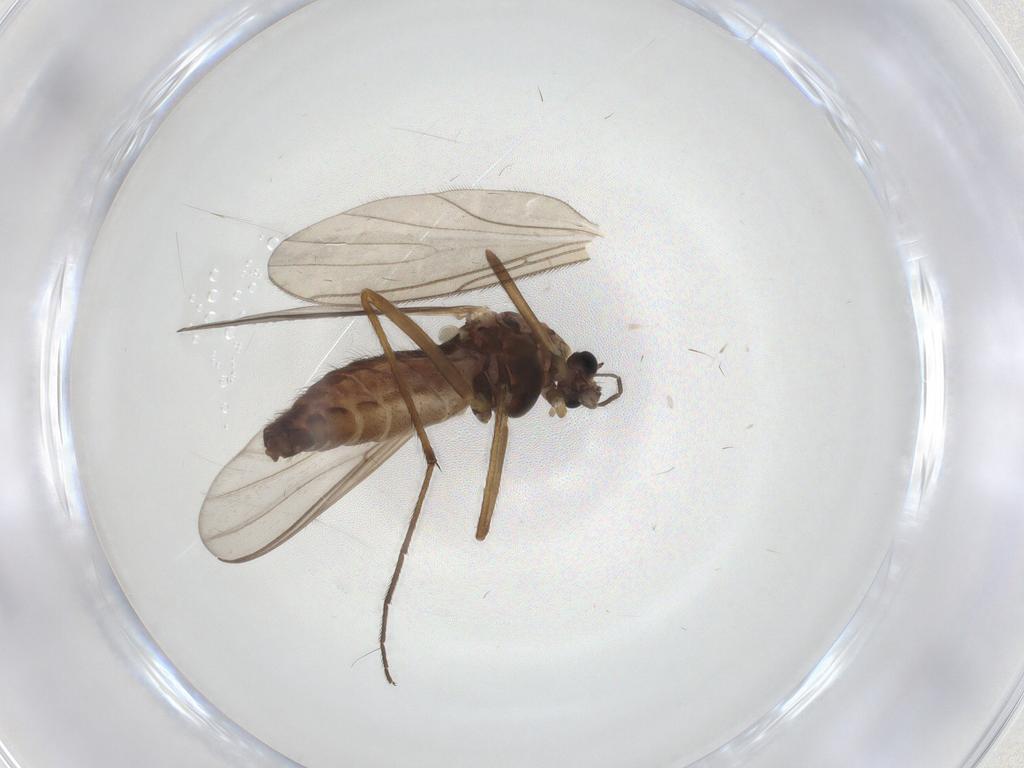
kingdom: Animalia
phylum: Arthropoda
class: Insecta
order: Diptera
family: Chironomidae
